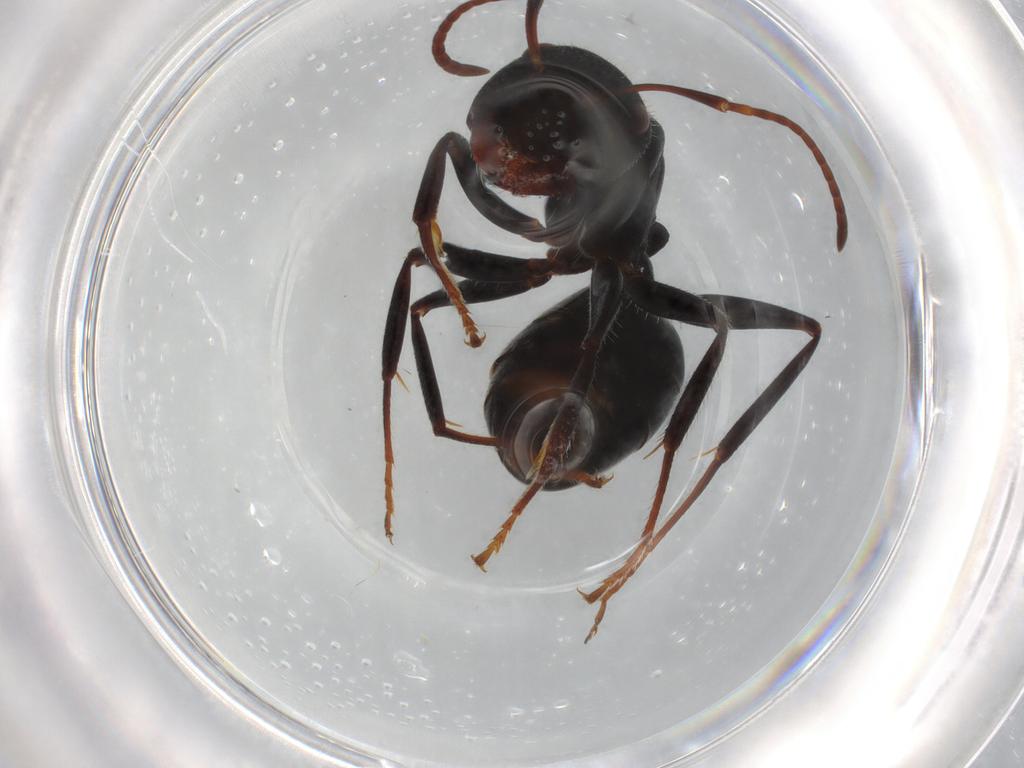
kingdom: Animalia
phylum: Arthropoda
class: Insecta
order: Hymenoptera
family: Formicidae
